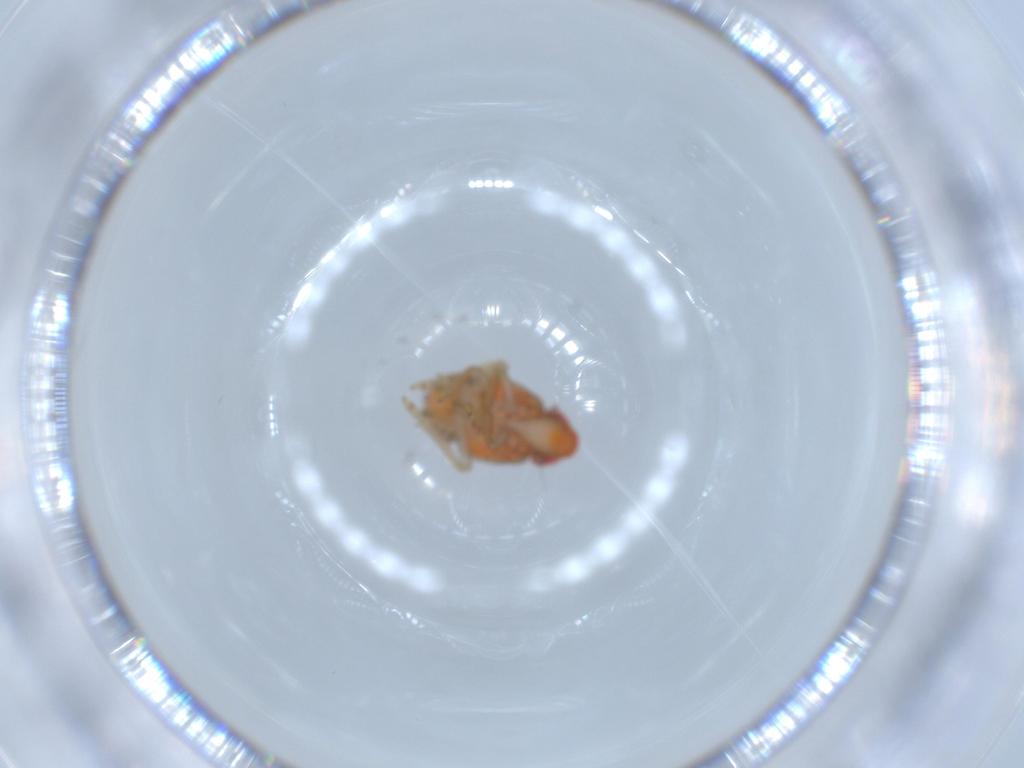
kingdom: Animalia
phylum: Arthropoda
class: Insecta
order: Hemiptera
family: Fulgoroidea_incertae_sedis
